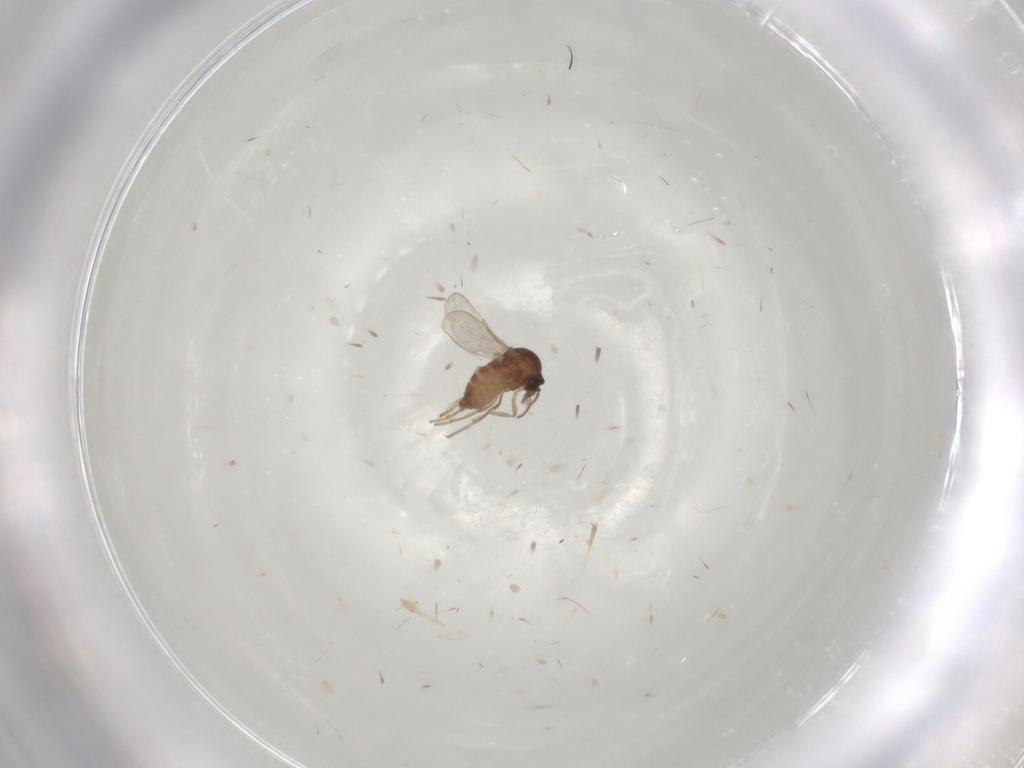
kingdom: Animalia
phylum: Arthropoda
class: Insecta
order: Diptera
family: Ceratopogonidae
